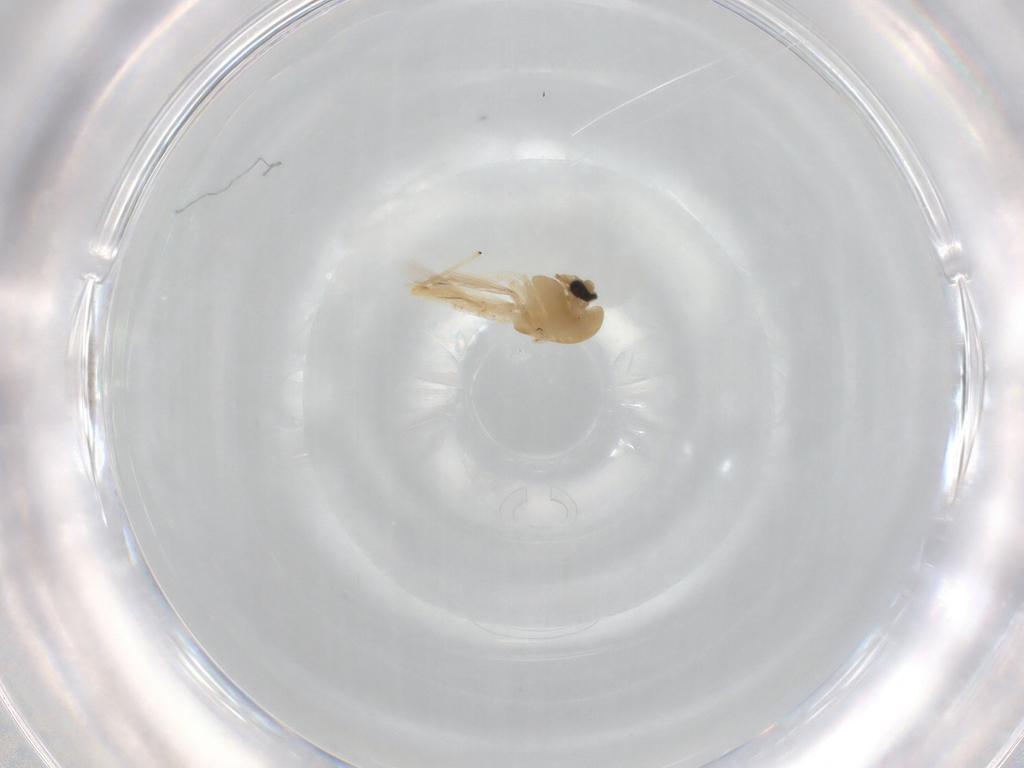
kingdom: Animalia
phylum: Arthropoda
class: Insecta
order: Diptera
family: Chironomidae
